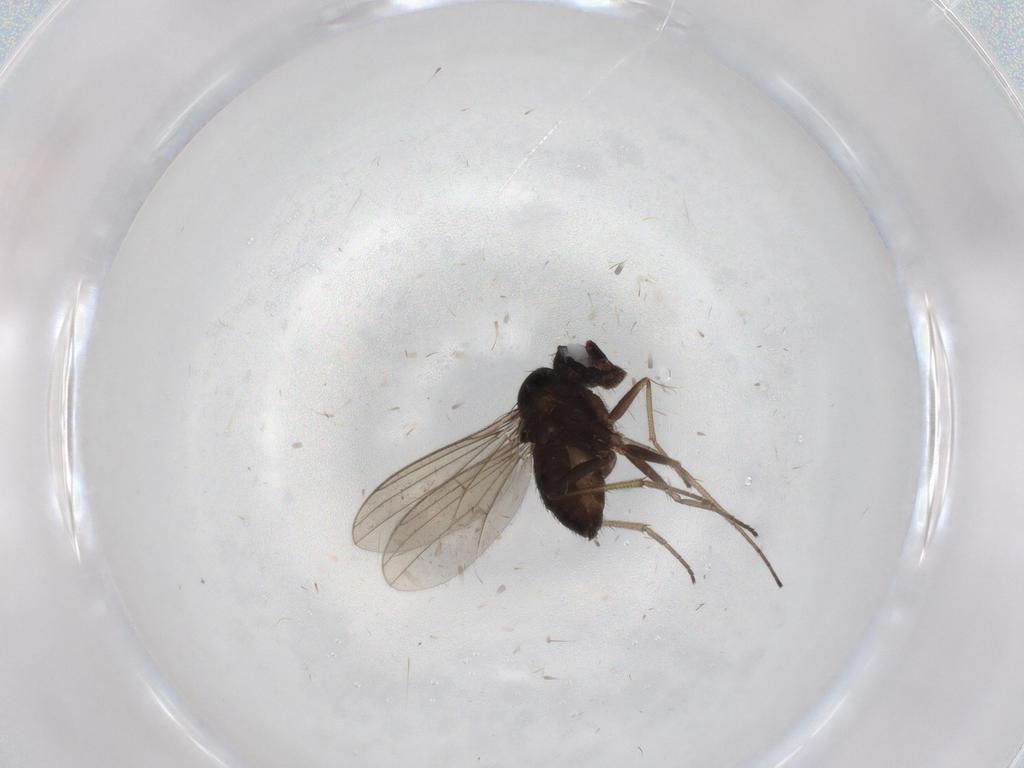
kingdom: Animalia
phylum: Arthropoda
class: Insecta
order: Diptera
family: Dolichopodidae
